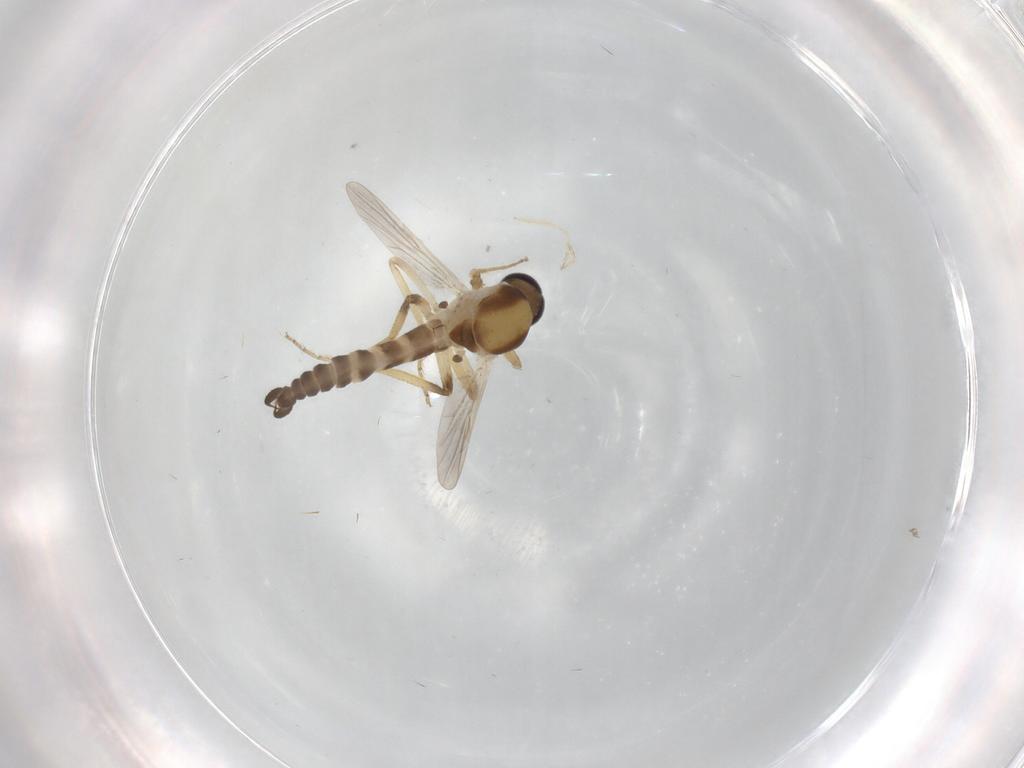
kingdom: Animalia
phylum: Arthropoda
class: Insecta
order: Diptera
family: Ceratopogonidae
